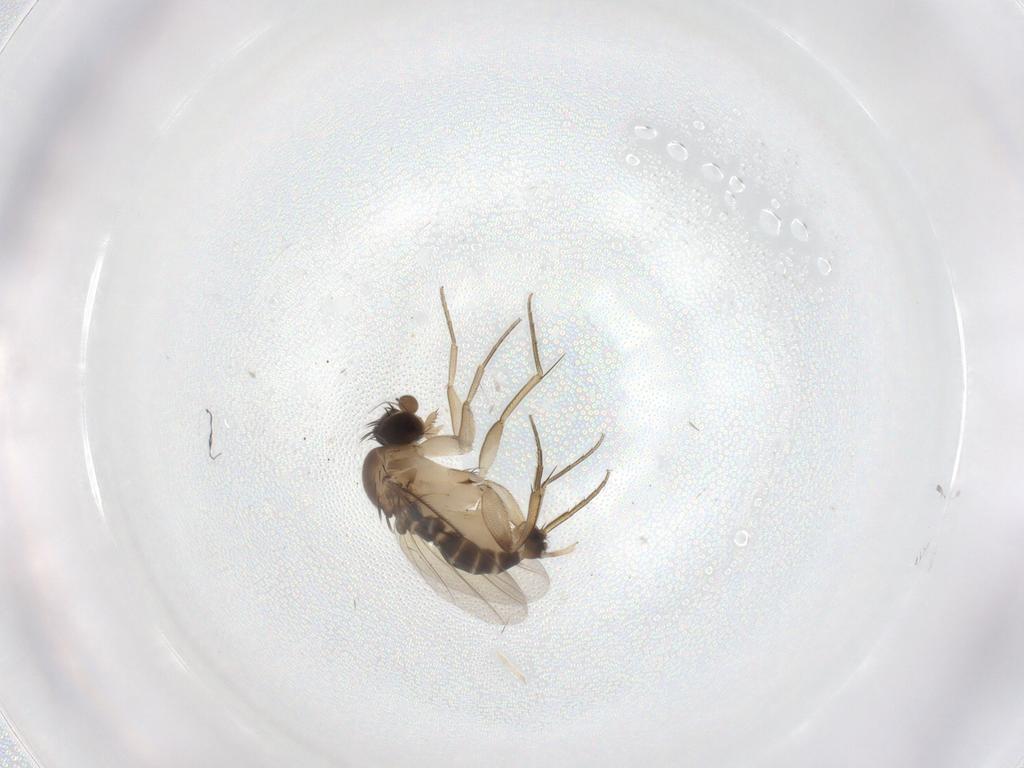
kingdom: Animalia
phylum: Arthropoda
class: Insecta
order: Diptera
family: Phoridae
